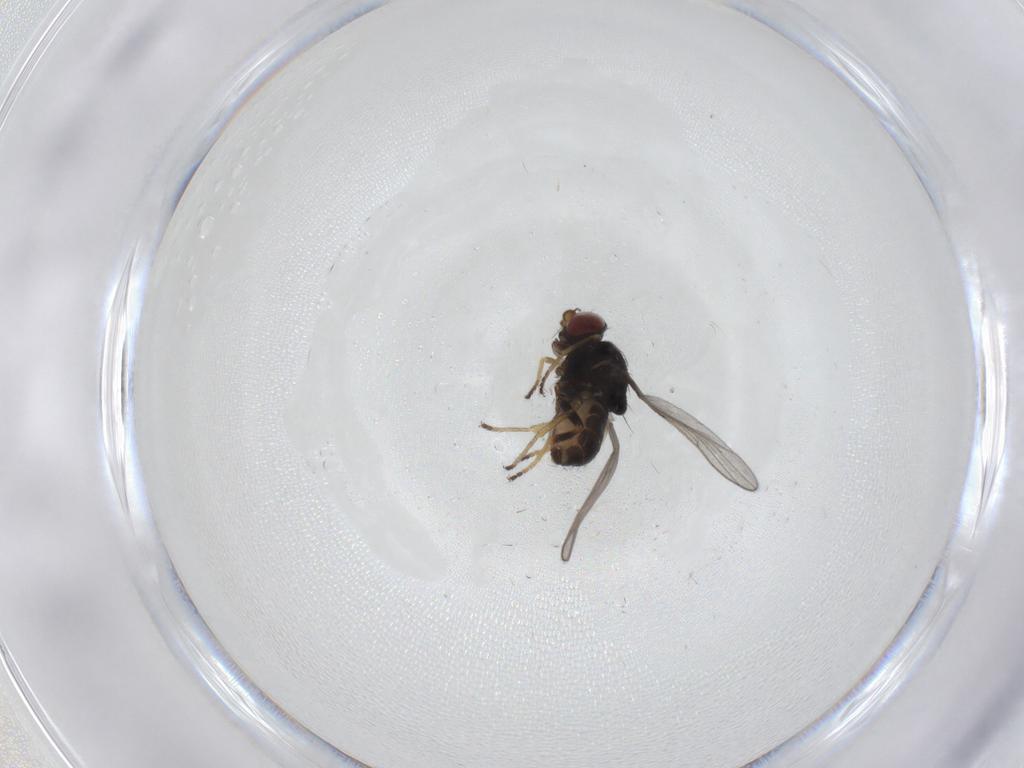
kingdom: Animalia
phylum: Arthropoda
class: Insecta
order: Diptera
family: Chloropidae
